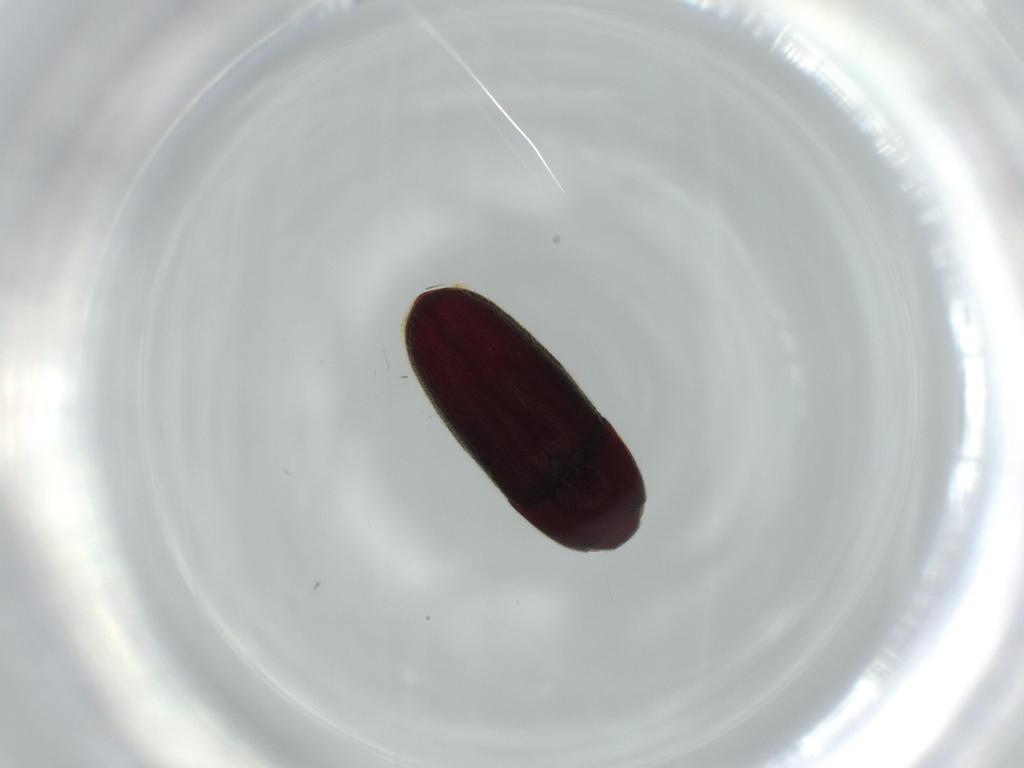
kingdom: Animalia
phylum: Arthropoda
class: Insecta
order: Coleoptera
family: Throscidae
